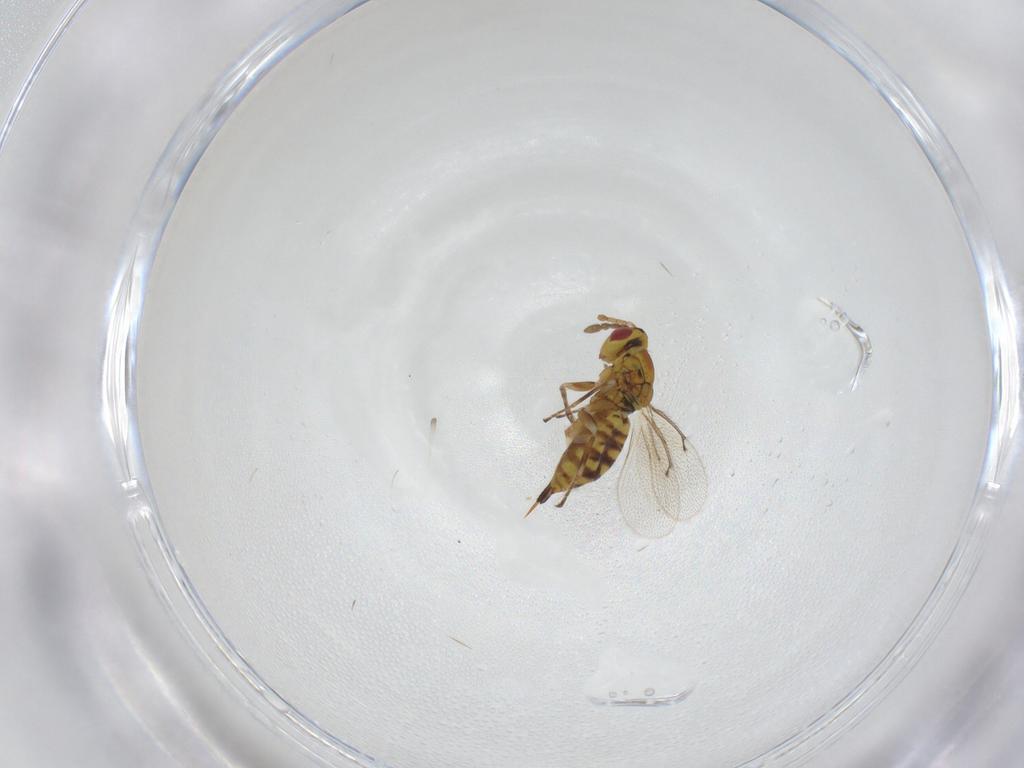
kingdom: Animalia
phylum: Arthropoda
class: Insecta
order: Hymenoptera
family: Eulophidae
